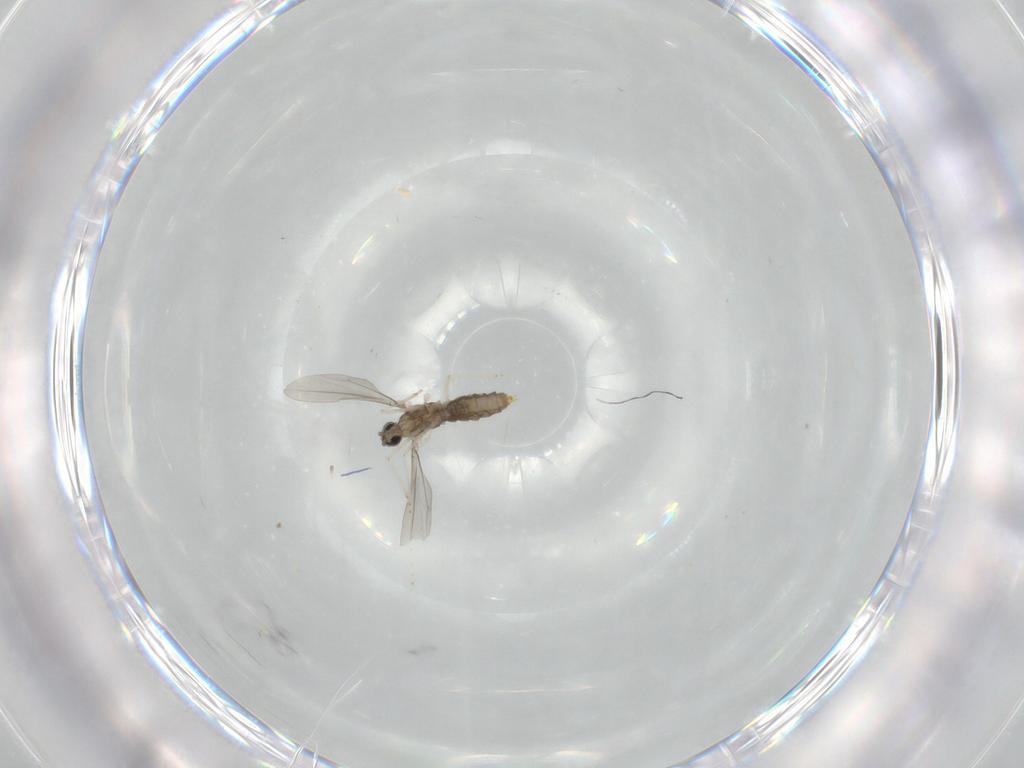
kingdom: Animalia
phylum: Arthropoda
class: Insecta
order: Diptera
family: Cecidomyiidae
